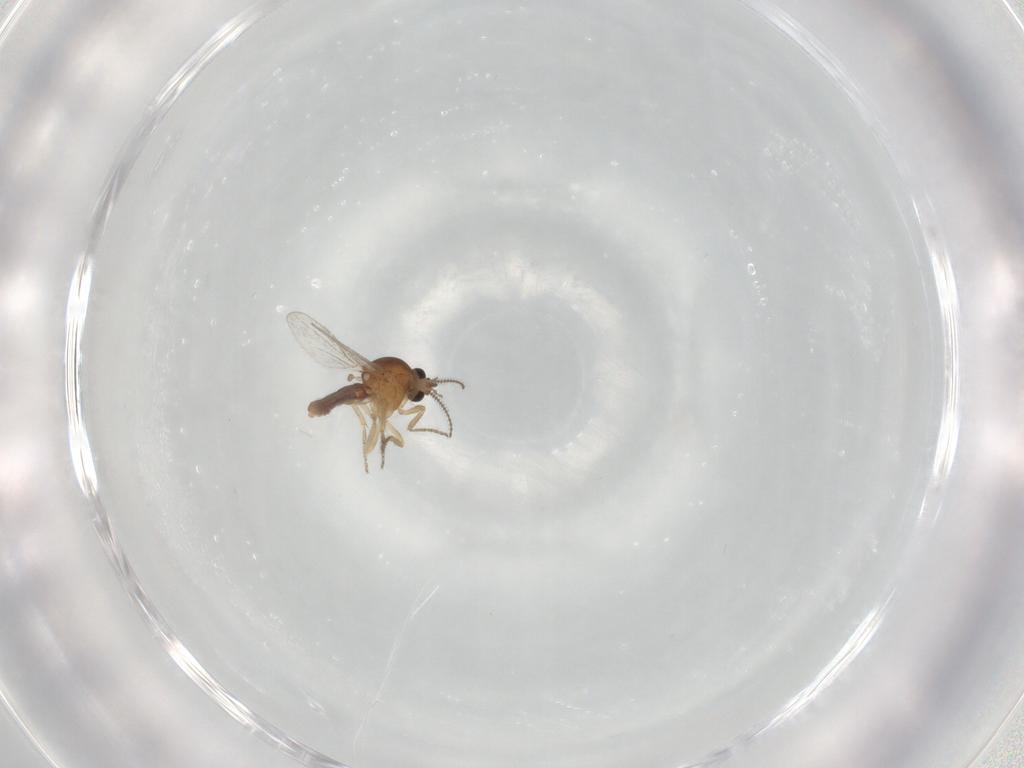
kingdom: Animalia
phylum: Arthropoda
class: Insecta
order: Diptera
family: Ceratopogonidae
